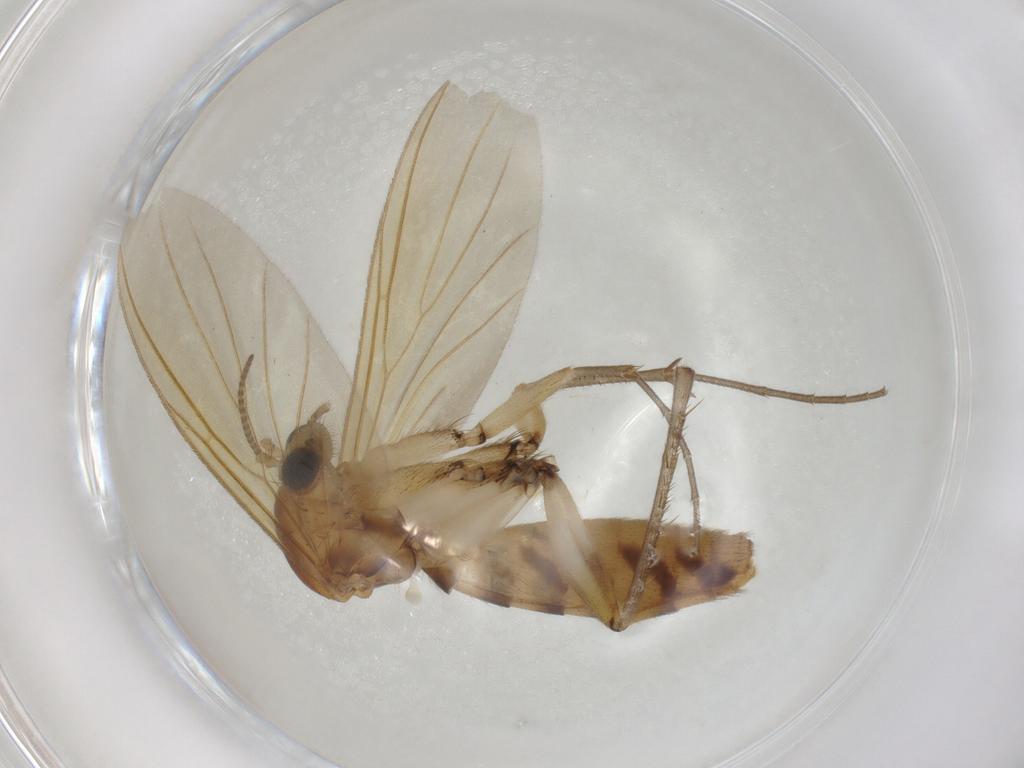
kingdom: Animalia
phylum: Arthropoda
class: Insecta
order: Diptera
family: Mycetophilidae
